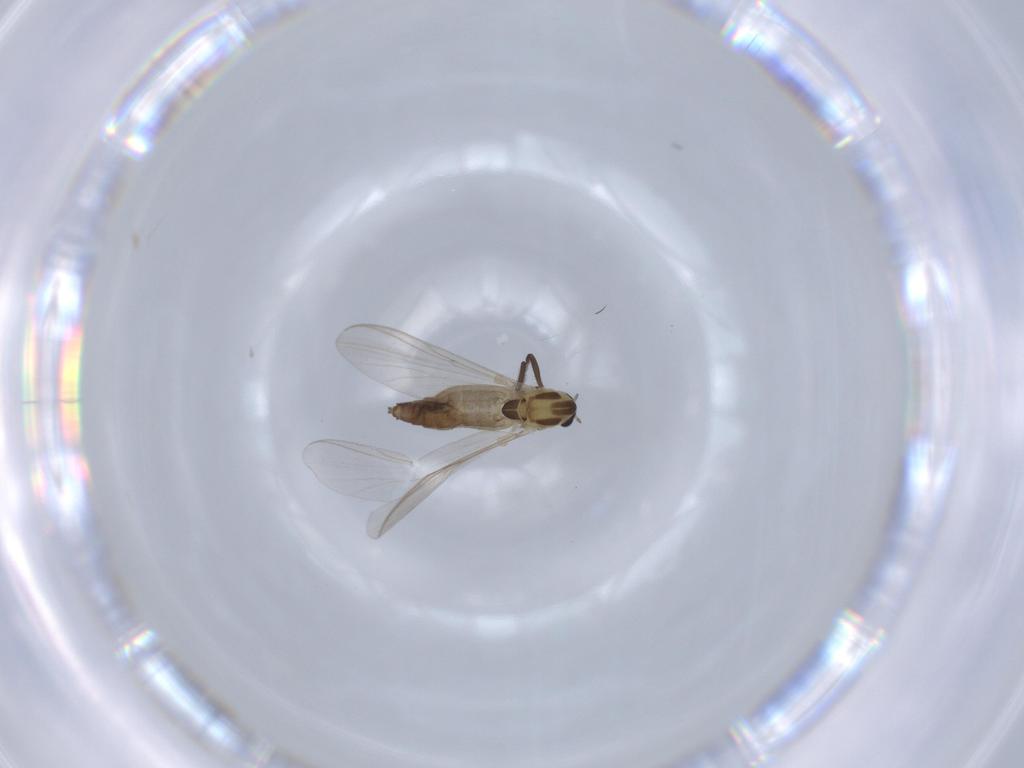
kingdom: Animalia
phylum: Arthropoda
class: Insecta
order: Diptera
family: Chironomidae
